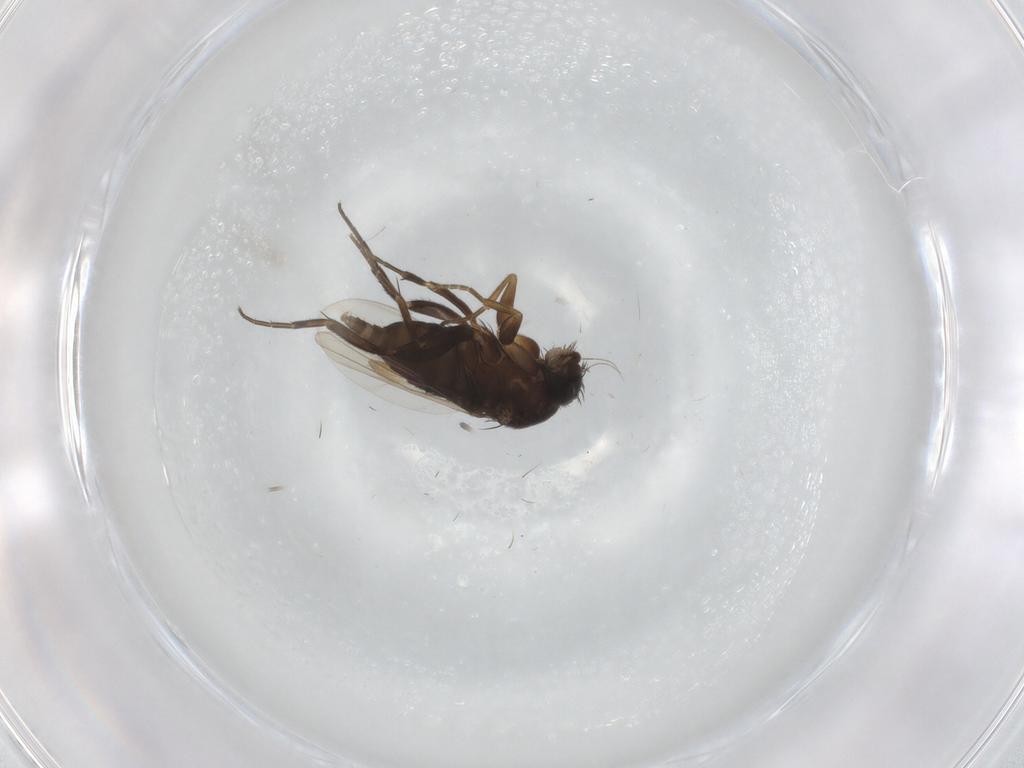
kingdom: Animalia
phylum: Arthropoda
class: Insecta
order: Diptera
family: Phoridae
